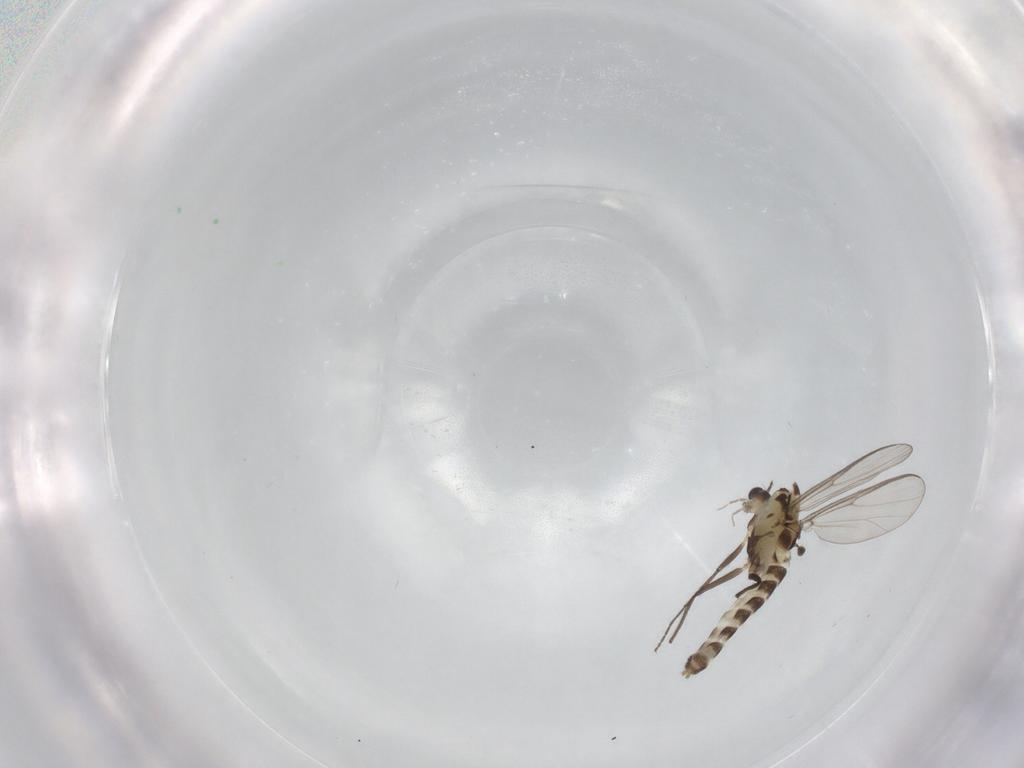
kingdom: Animalia
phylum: Arthropoda
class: Insecta
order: Diptera
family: Chironomidae
